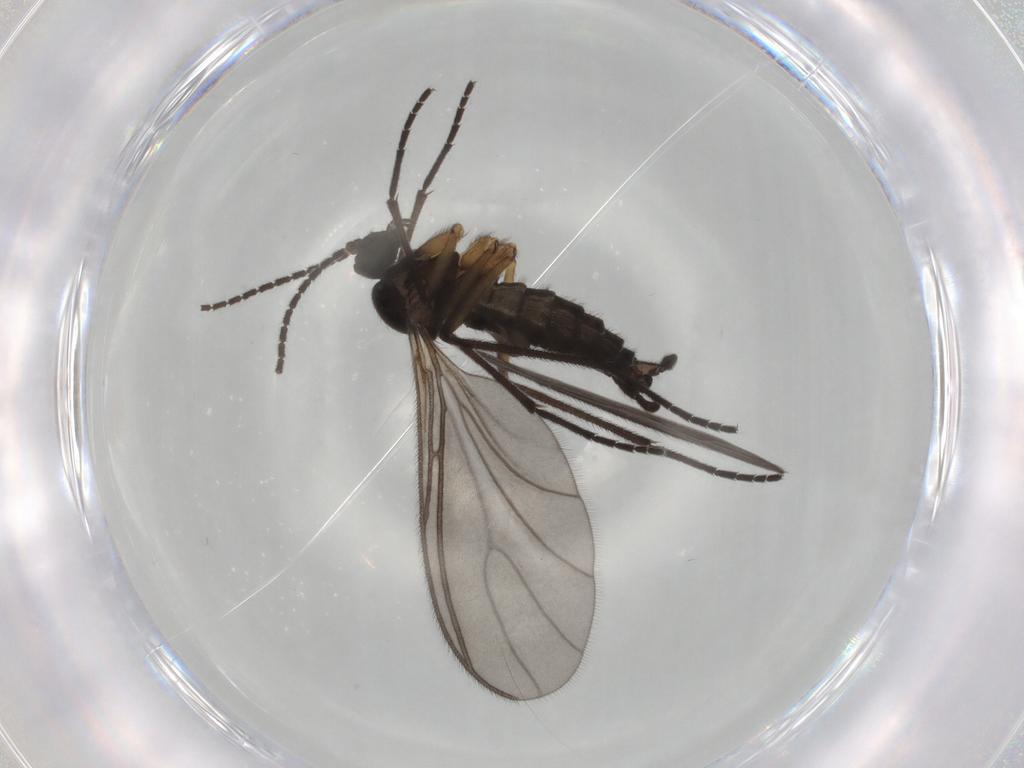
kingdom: Animalia
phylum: Arthropoda
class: Insecta
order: Diptera
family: Sciaridae
